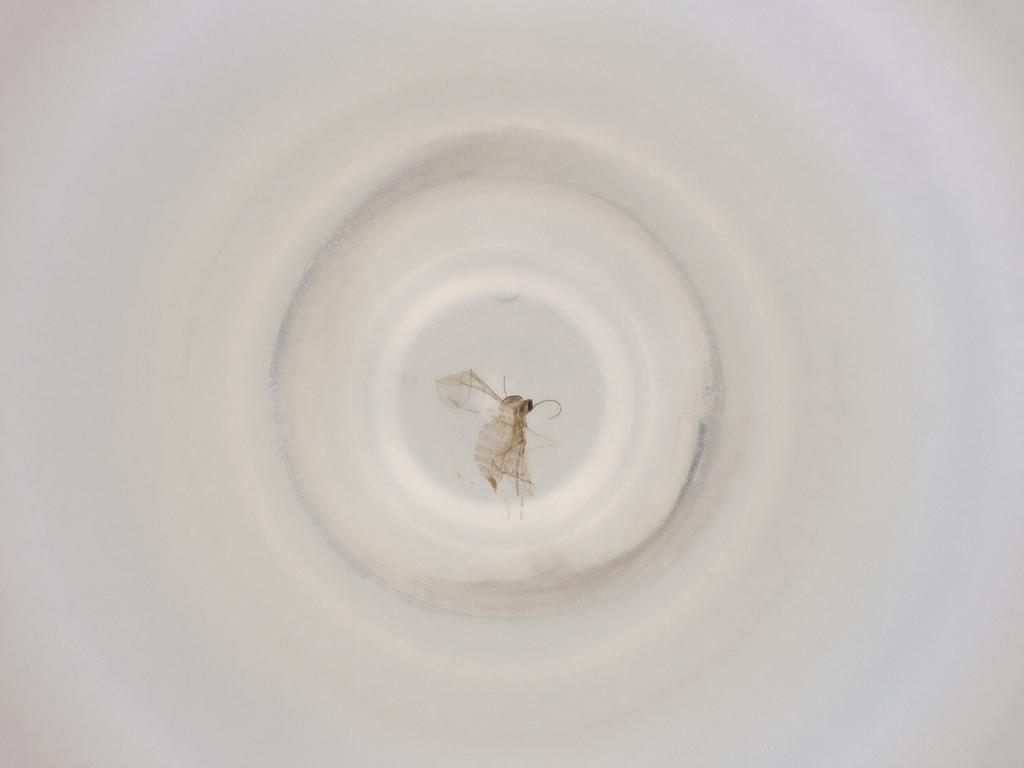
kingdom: Animalia
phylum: Arthropoda
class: Insecta
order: Diptera
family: Cecidomyiidae
